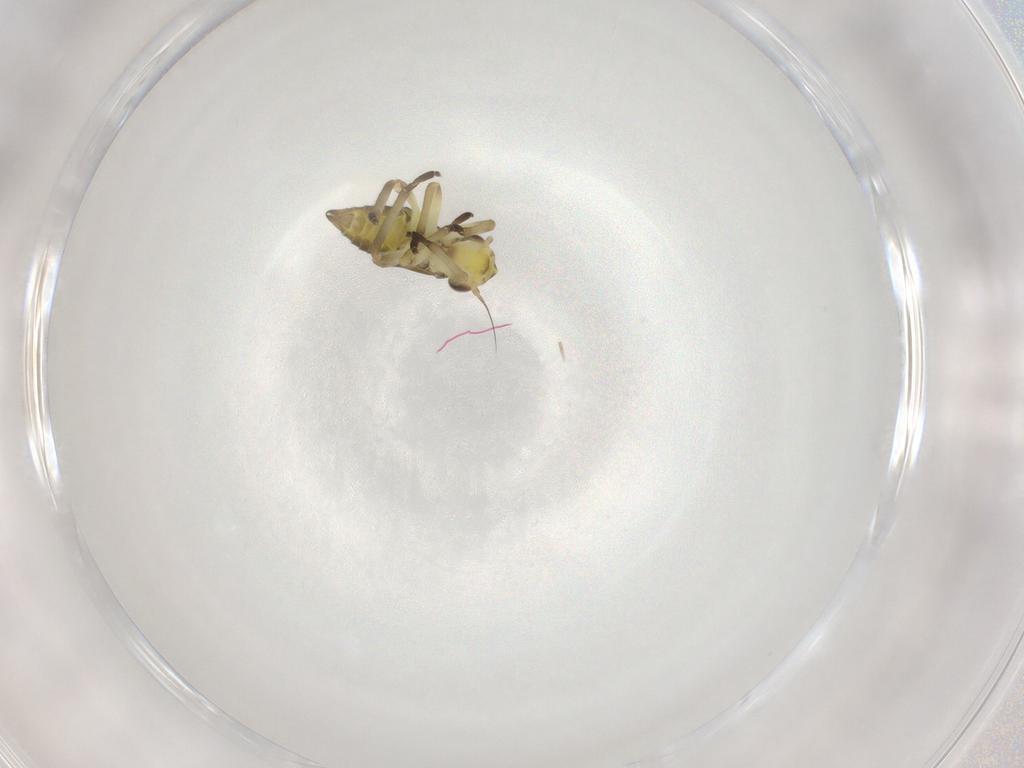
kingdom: Animalia
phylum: Arthropoda
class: Insecta
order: Hemiptera
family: Cicadellidae
